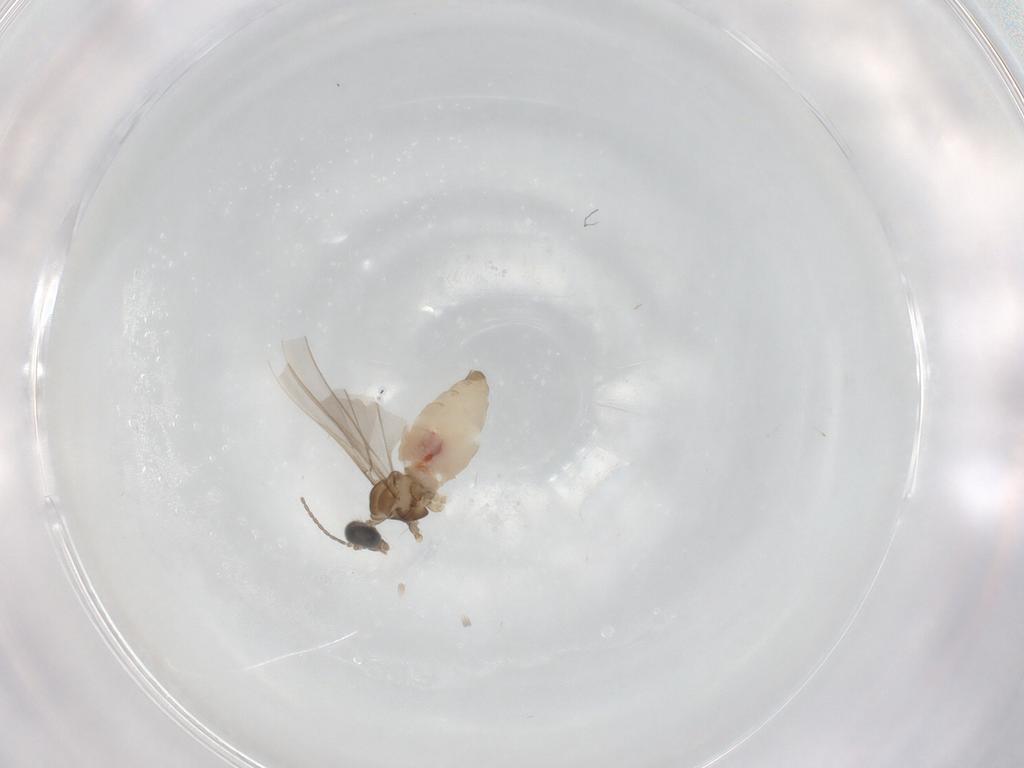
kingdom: Animalia
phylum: Arthropoda
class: Insecta
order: Diptera
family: Cecidomyiidae
